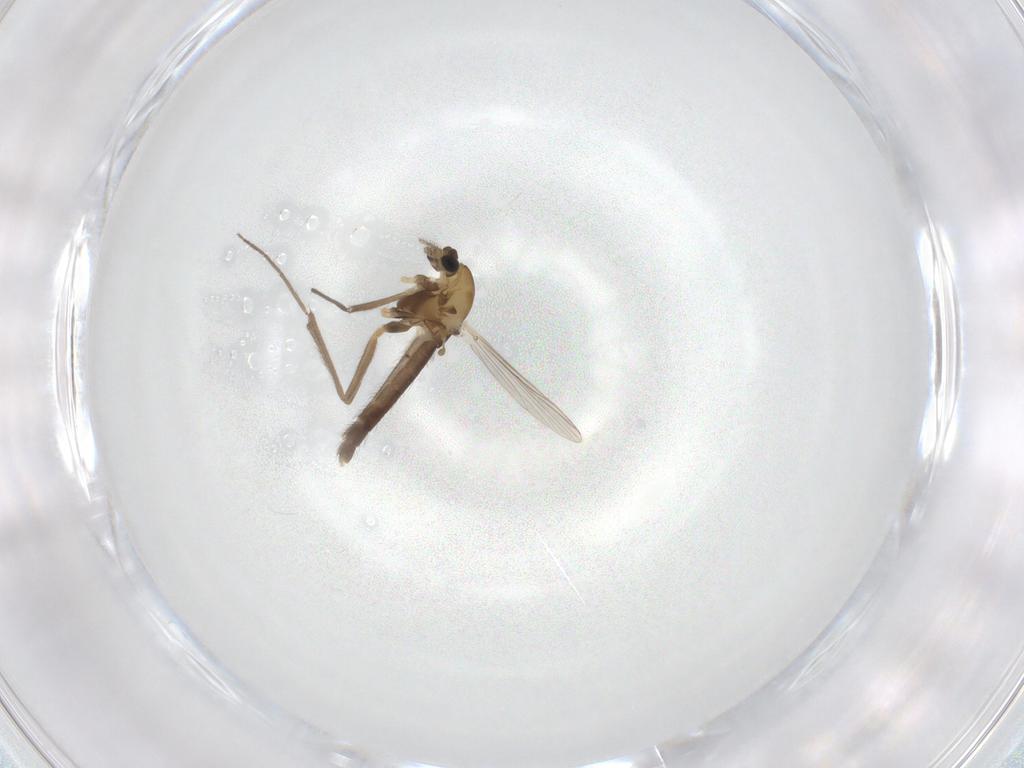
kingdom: Animalia
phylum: Arthropoda
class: Insecta
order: Diptera
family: Chironomidae
